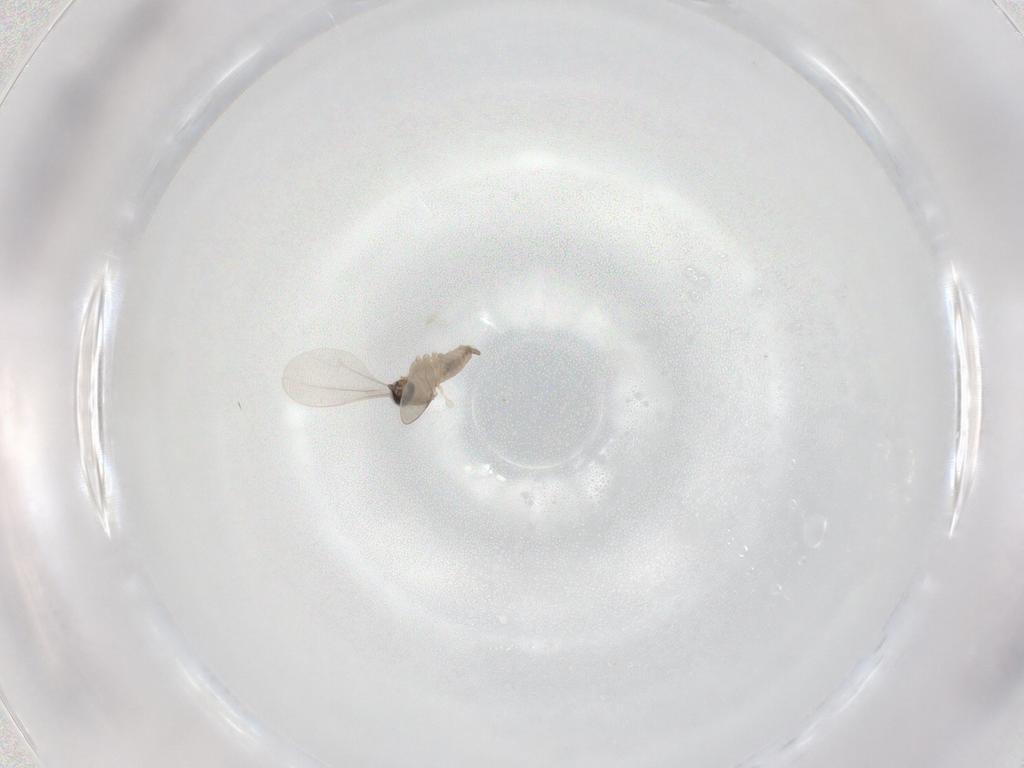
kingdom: Animalia
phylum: Arthropoda
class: Insecta
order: Diptera
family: Cecidomyiidae
